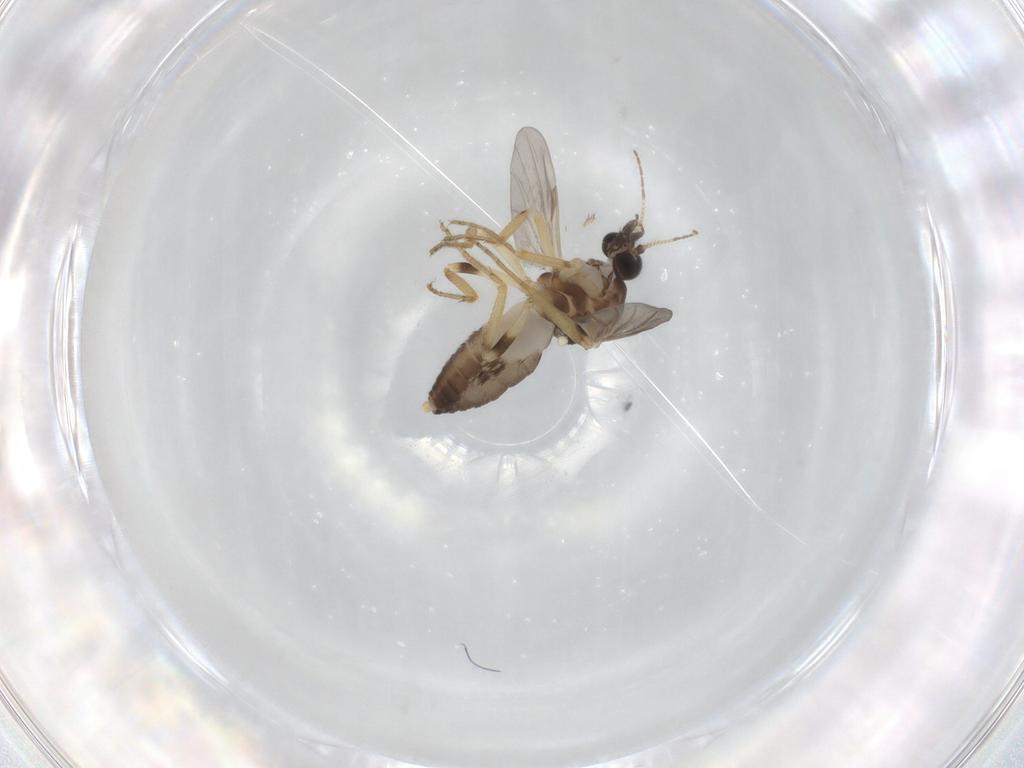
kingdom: Animalia
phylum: Arthropoda
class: Insecta
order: Diptera
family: Ceratopogonidae
